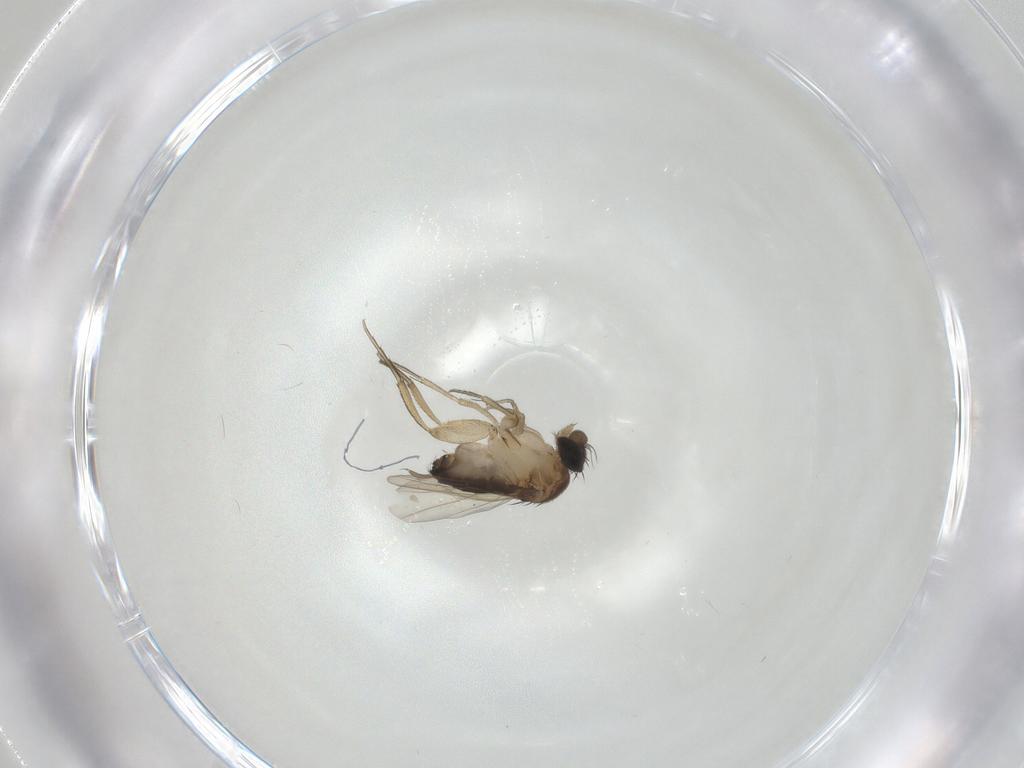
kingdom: Animalia
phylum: Arthropoda
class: Insecta
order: Diptera
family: Phoridae
